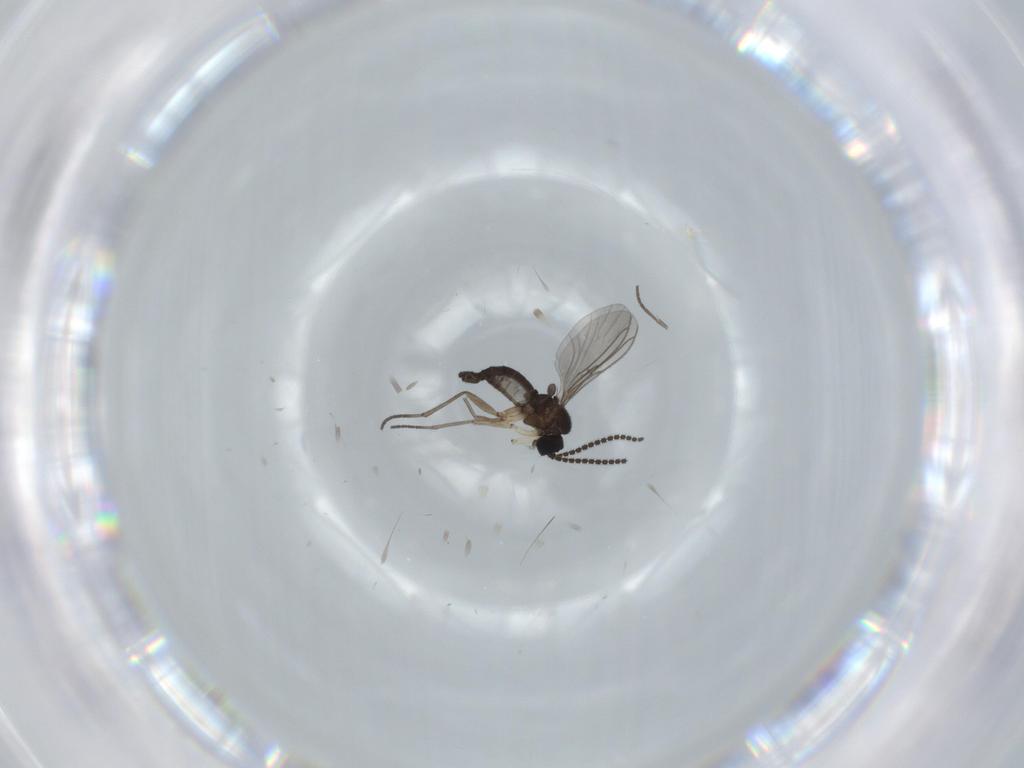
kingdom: Animalia
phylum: Arthropoda
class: Insecta
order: Diptera
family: Sciaridae
